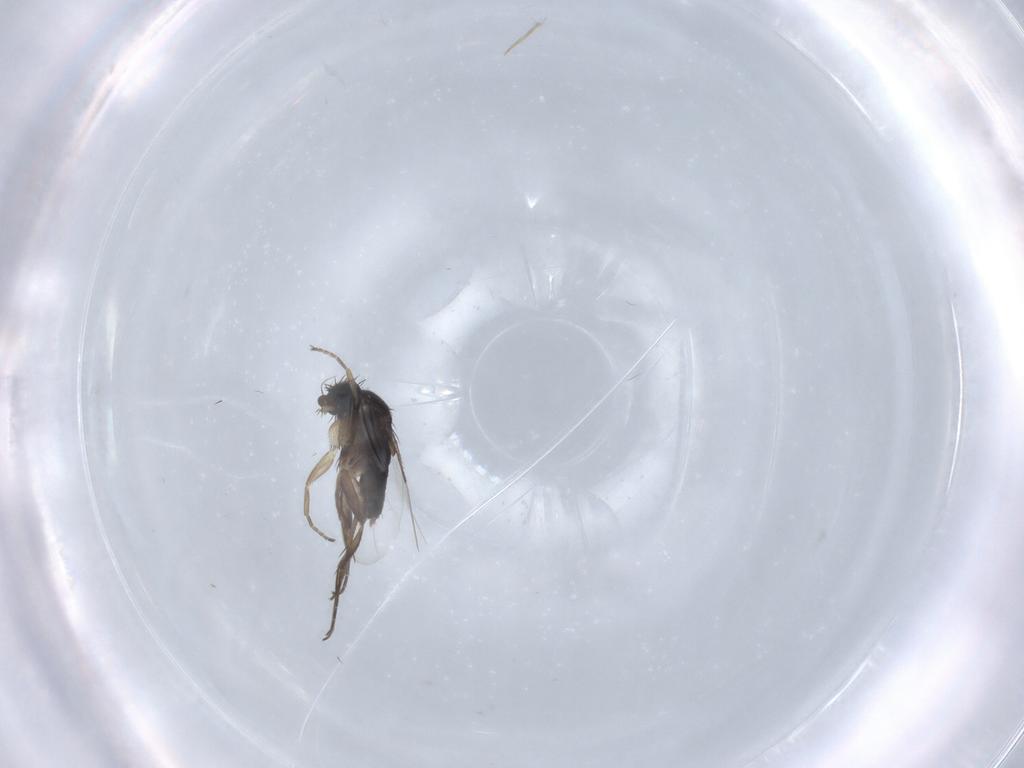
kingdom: Animalia
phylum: Arthropoda
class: Insecta
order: Diptera
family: Phoridae
